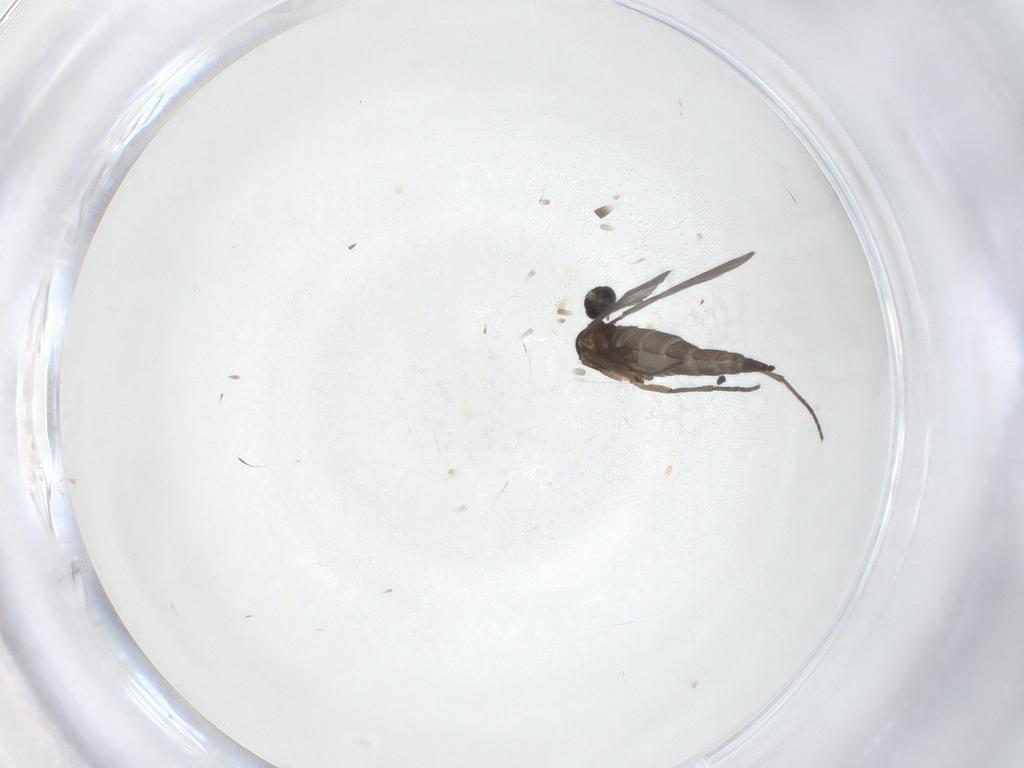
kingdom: Animalia
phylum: Arthropoda
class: Insecta
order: Diptera
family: Sciaridae
